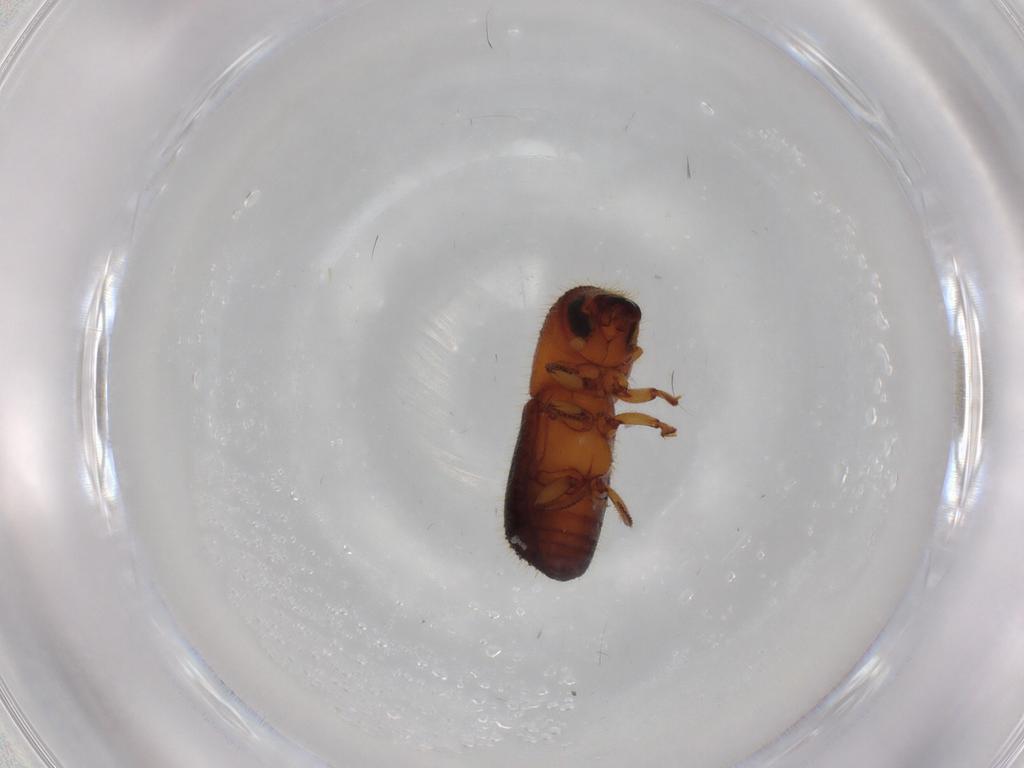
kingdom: Animalia
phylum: Arthropoda
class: Insecta
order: Coleoptera
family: Curculionidae
